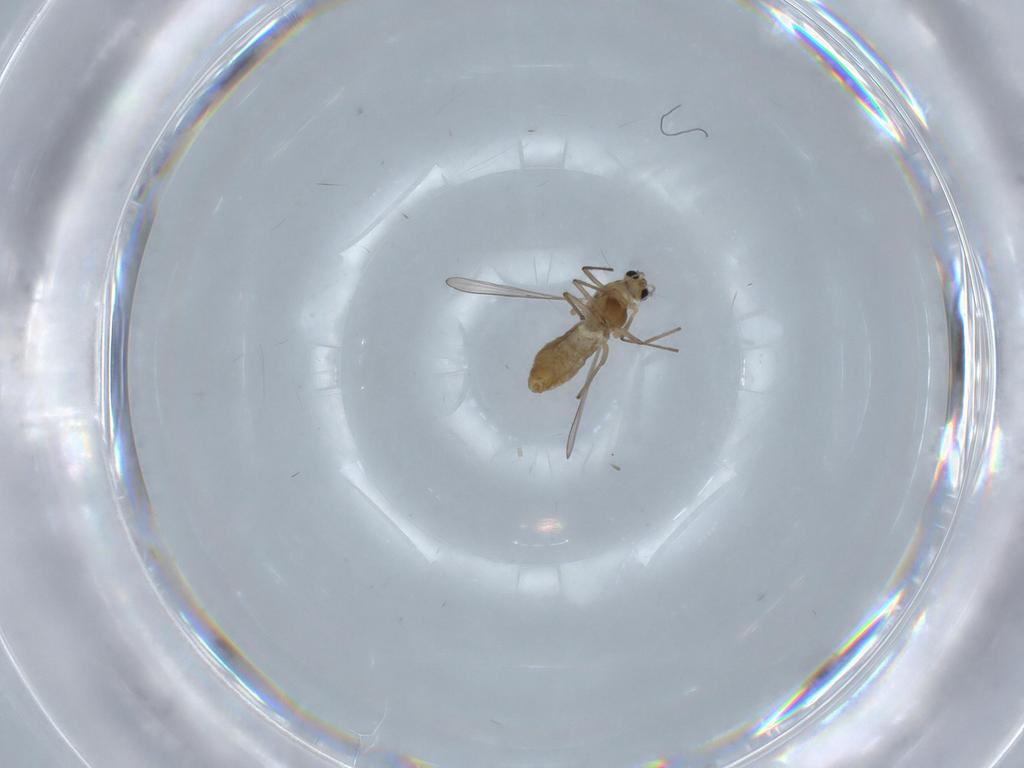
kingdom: Animalia
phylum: Arthropoda
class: Insecta
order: Diptera
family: Chironomidae
